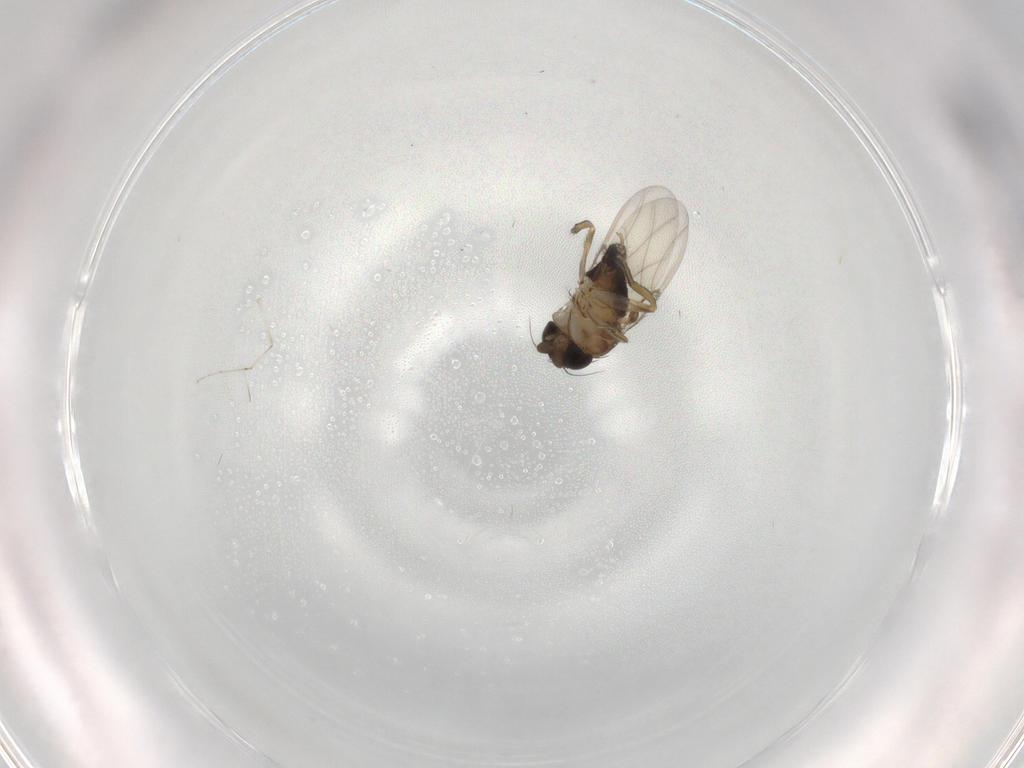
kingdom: Animalia
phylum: Arthropoda
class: Insecta
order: Diptera
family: Phoridae
